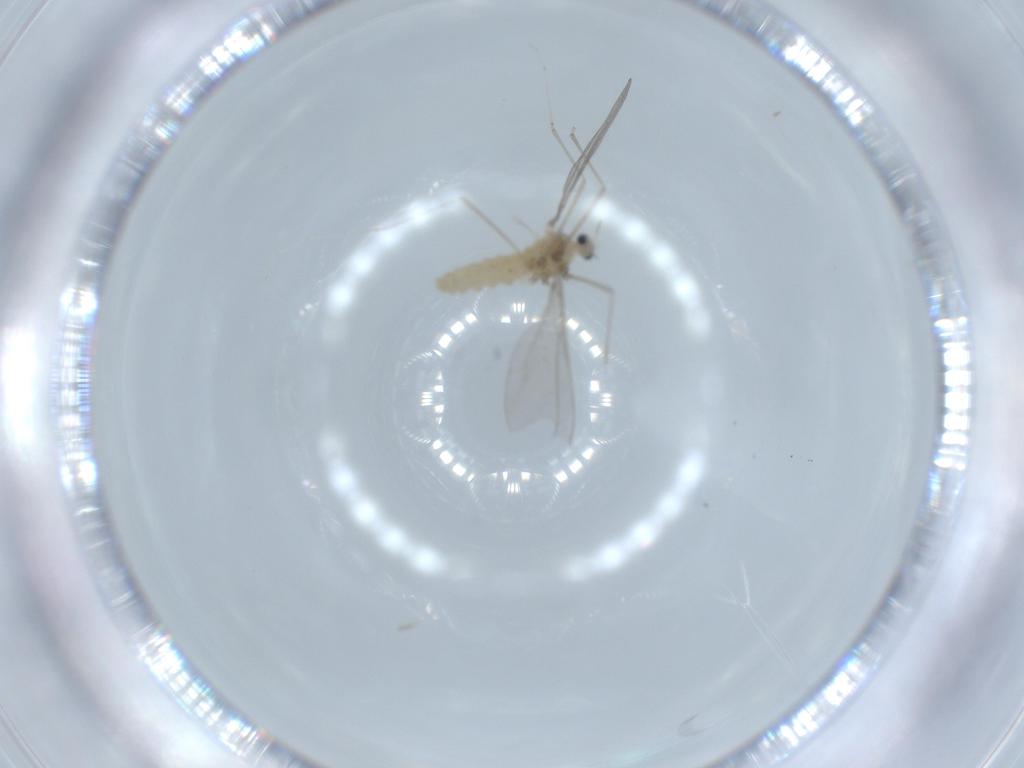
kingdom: Animalia
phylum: Arthropoda
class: Insecta
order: Diptera
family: Cecidomyiidae
